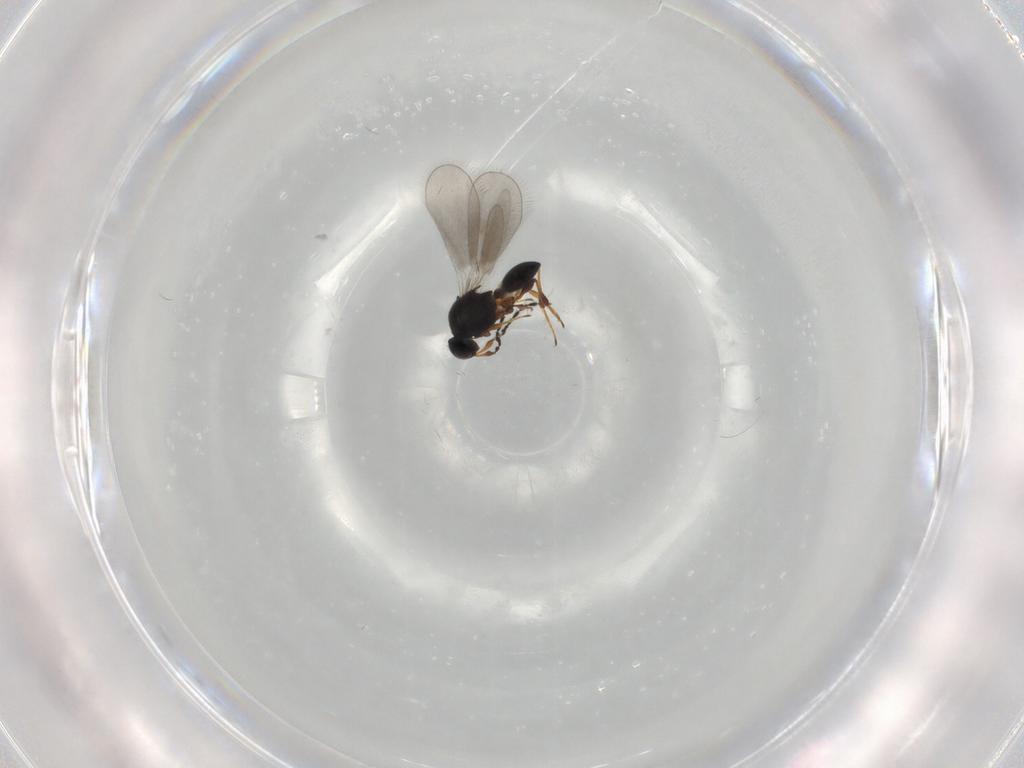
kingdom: Animalia
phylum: Arthropoda
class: Insecta
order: Hymenoptera
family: Platygastridae
